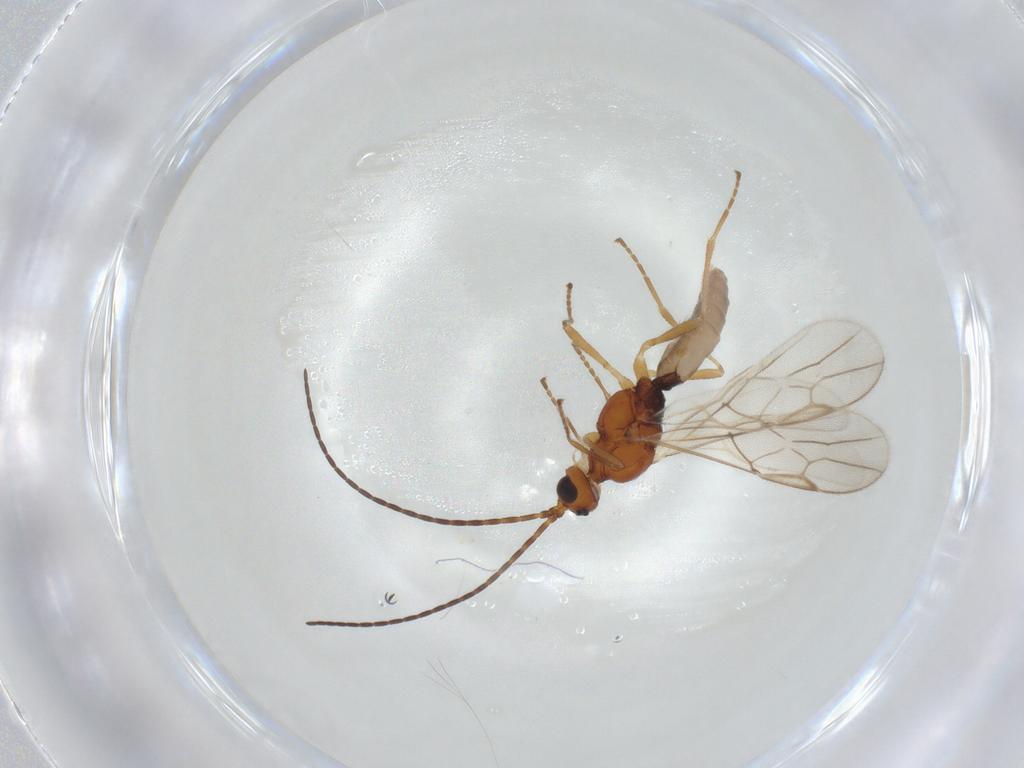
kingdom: Animalia
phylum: Arthropoda
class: Insecta
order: Hymenoptera
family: Braconidae
